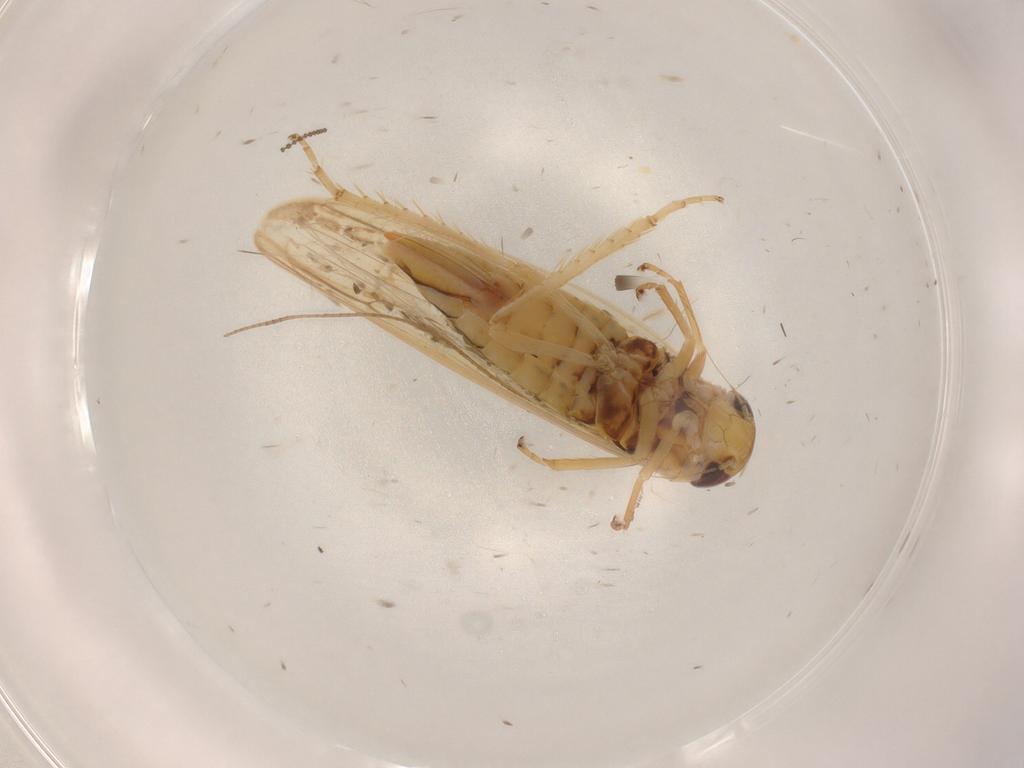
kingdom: Animalia
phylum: Arthropoda
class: Insecta
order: Hemiptera
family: Cicadellidae
